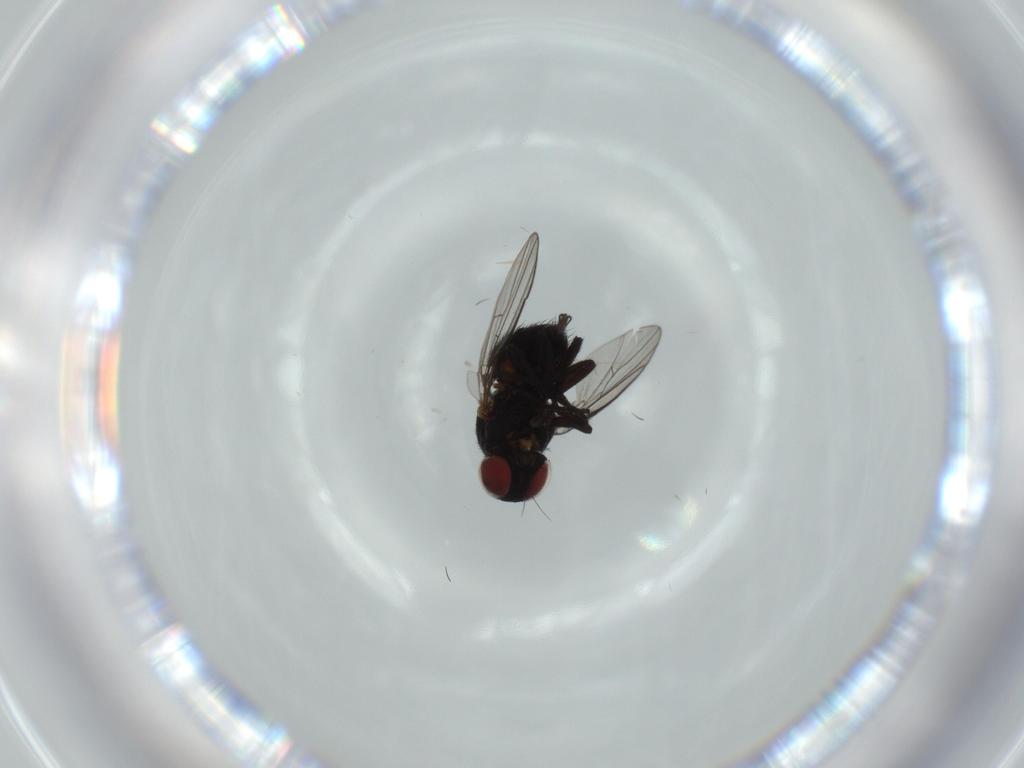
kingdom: Animalia
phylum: Arthropoda
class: Insecta
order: Diptera
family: Agromyzidae
